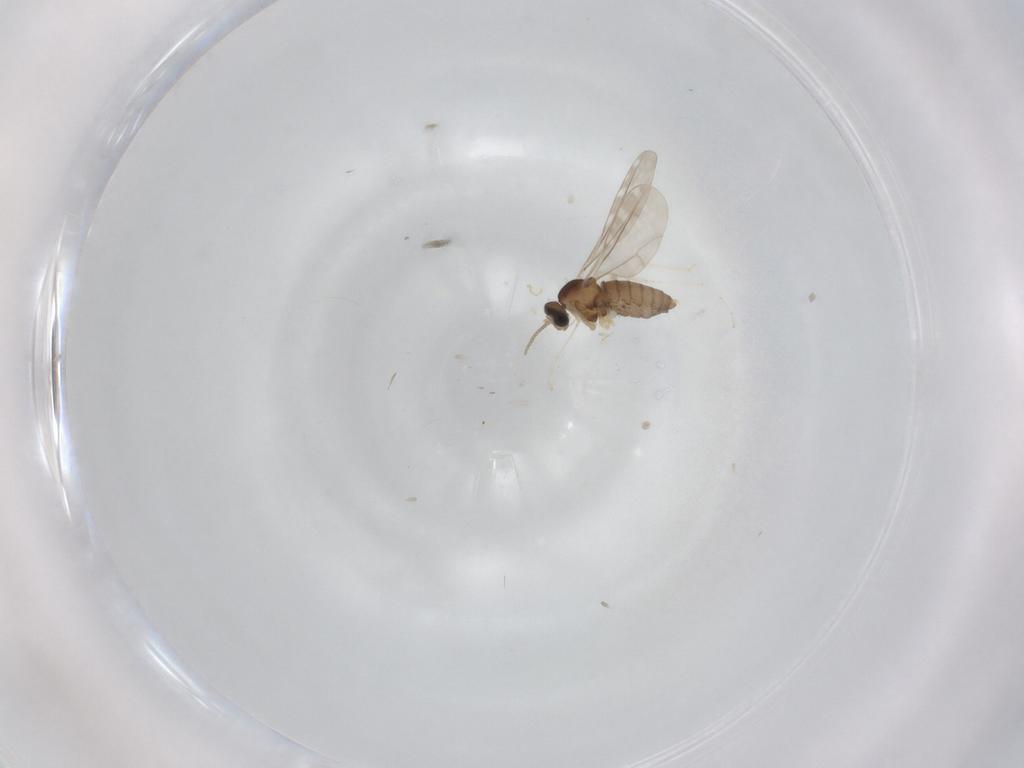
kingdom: Animalia
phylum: Arthropoda
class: Insecta
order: Diptera
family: Cecidomyiidae
